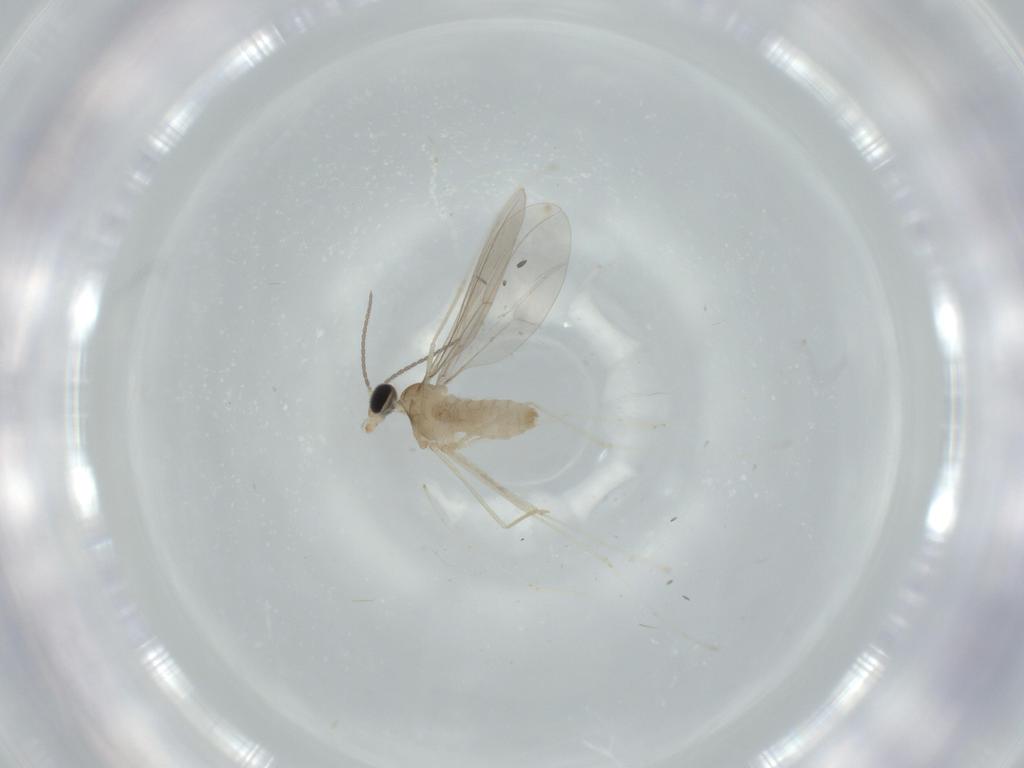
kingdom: Animalia
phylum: Arthropoda
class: Insecta
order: Diptera
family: Cecidomyiidae
